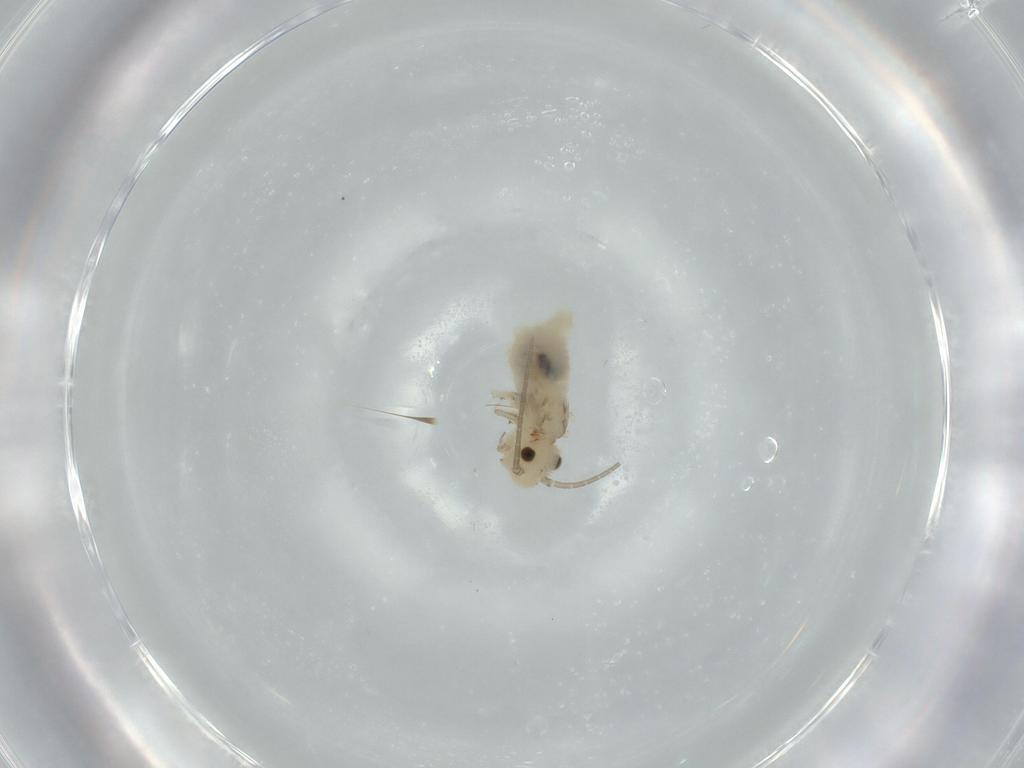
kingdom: Animalia
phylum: Arthropoda
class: Insecta
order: Psocodea
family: Caeciliusidae
